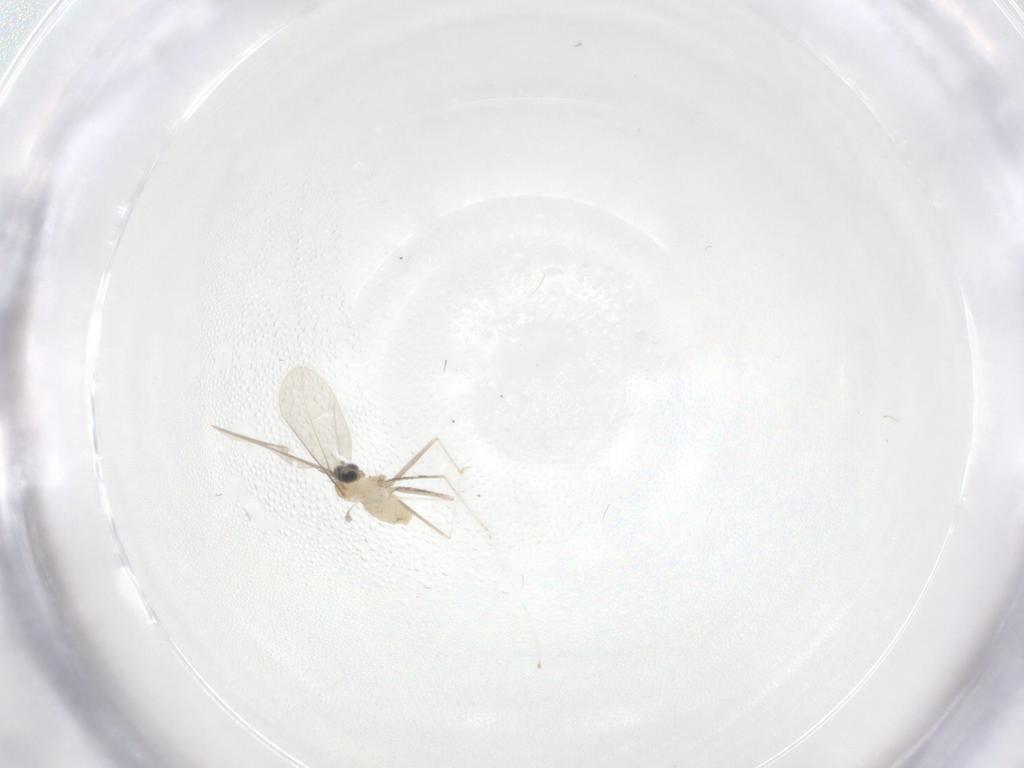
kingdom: Animalia
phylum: Arthropoda
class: Insecta
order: Diptera
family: Cecidomyiidae
